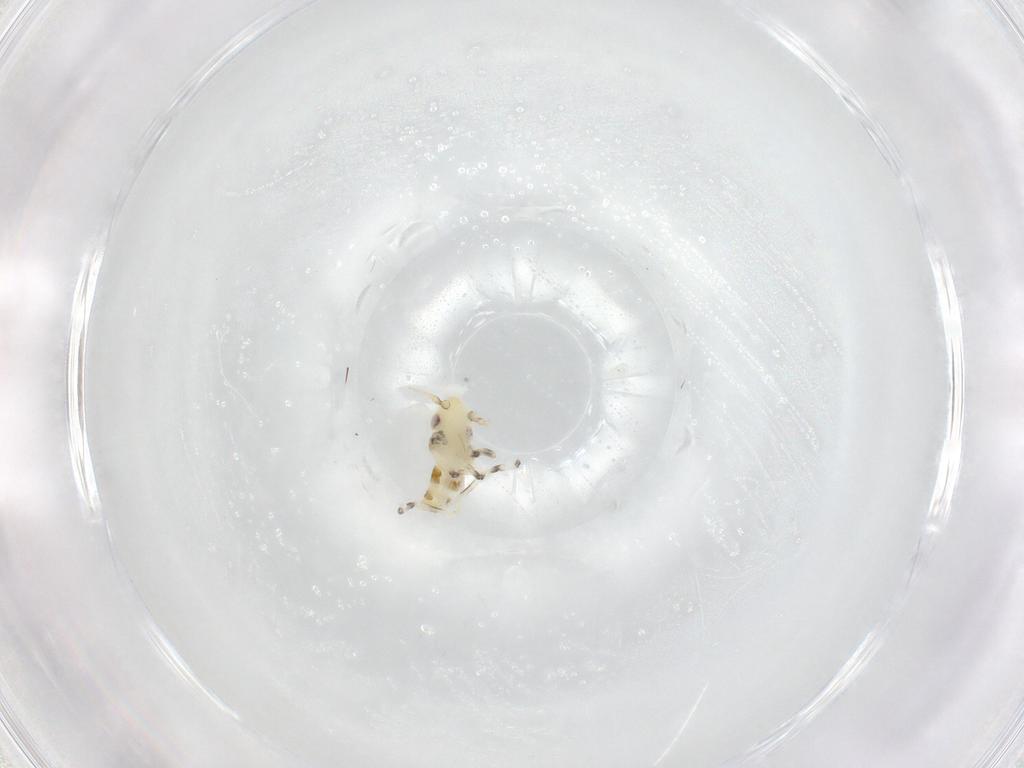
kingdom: Animalia
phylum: Arthropoda
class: Insecta
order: Hemiptera
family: Cicadellidae
